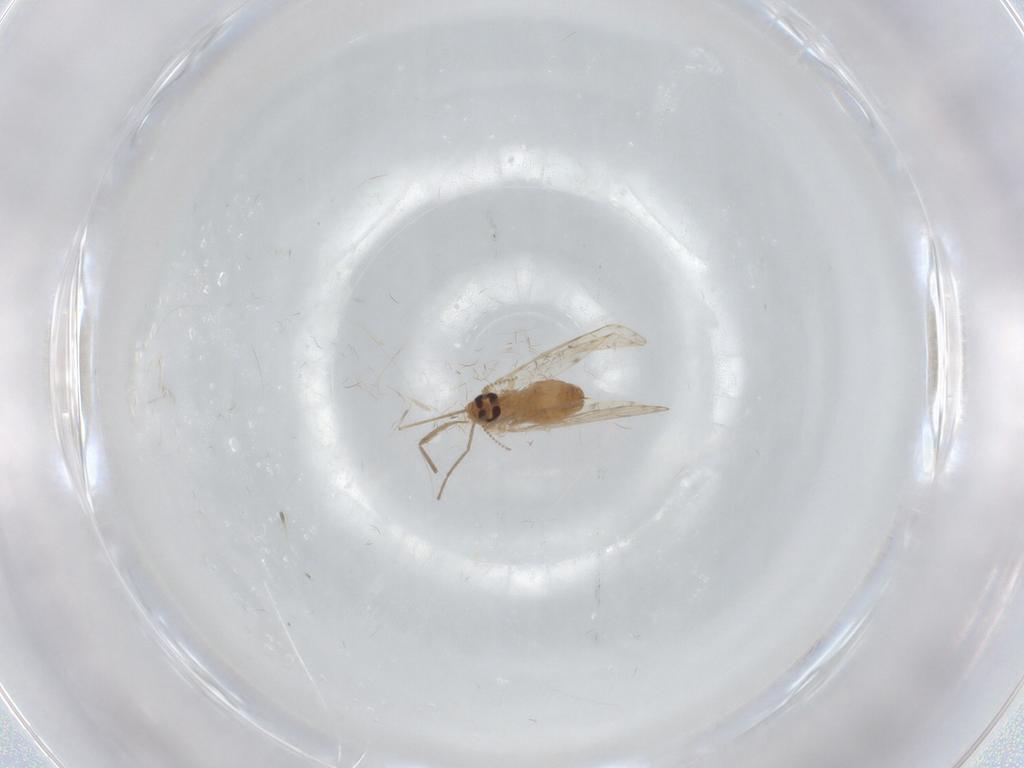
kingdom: Animalia
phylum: Arthropoda
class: Insecta
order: Diptera
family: Psychodidae
